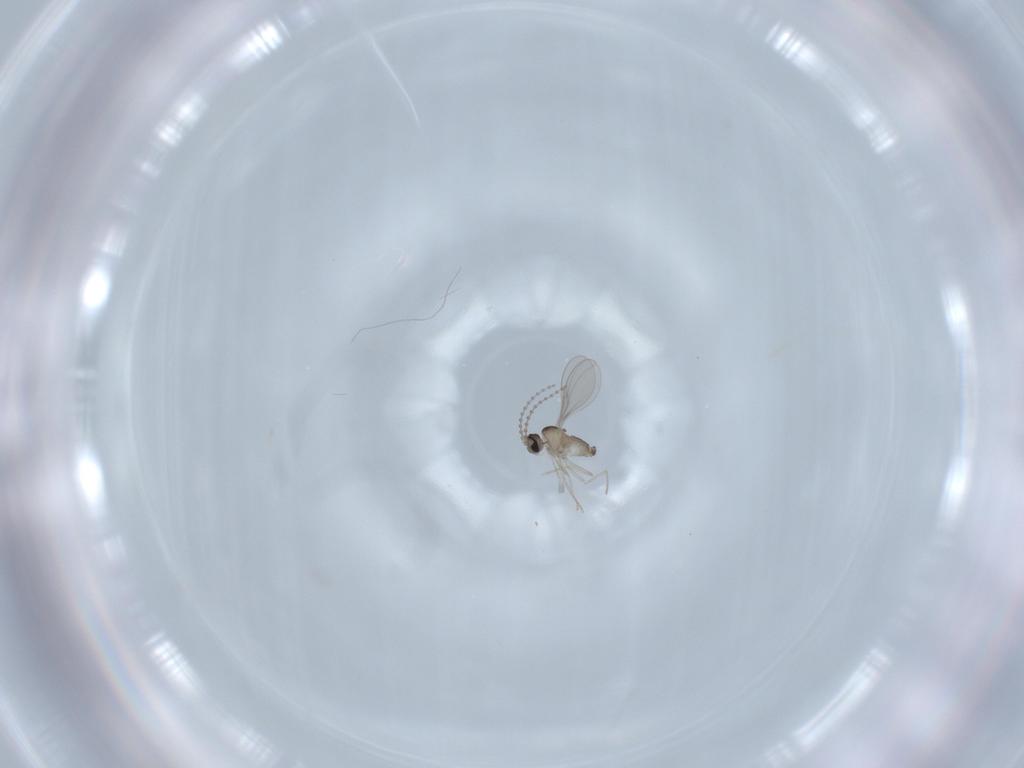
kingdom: Animalia
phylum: Arthropoda
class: Insecta
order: Diptera
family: Cecidomyiidae
